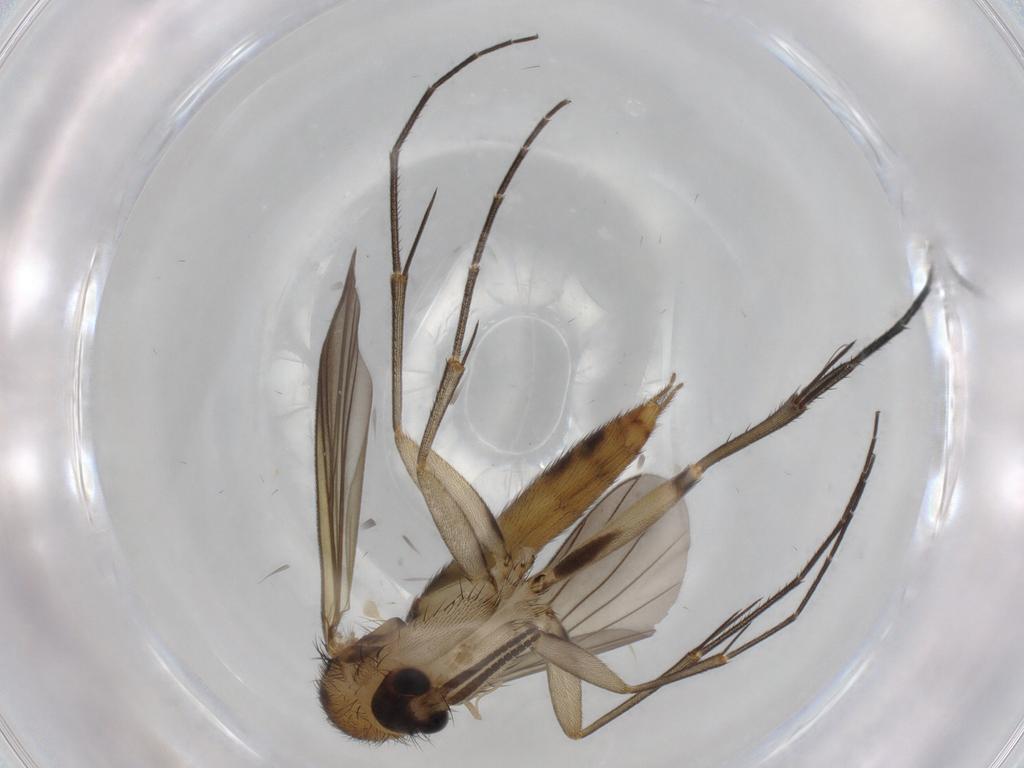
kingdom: Animalia
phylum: Arthropoda
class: Insecta
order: Diptera
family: Mycetophilidae
